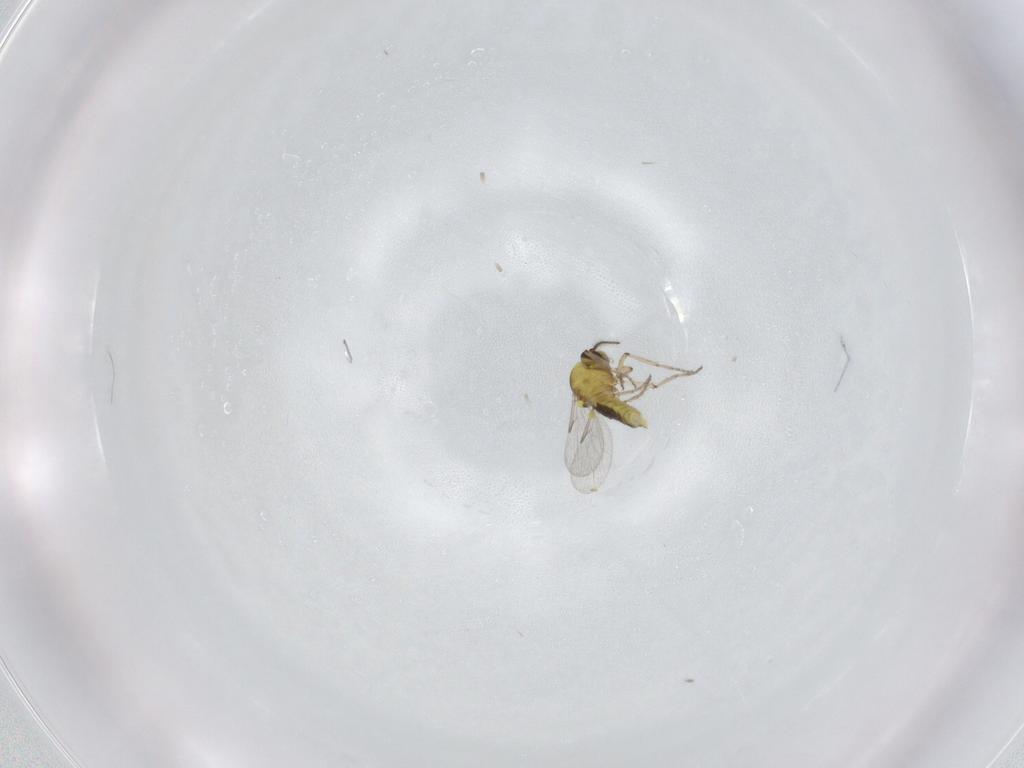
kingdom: Animalia
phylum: Arthropoda
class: Insecta
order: Diptera
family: Ceratopogonidae
